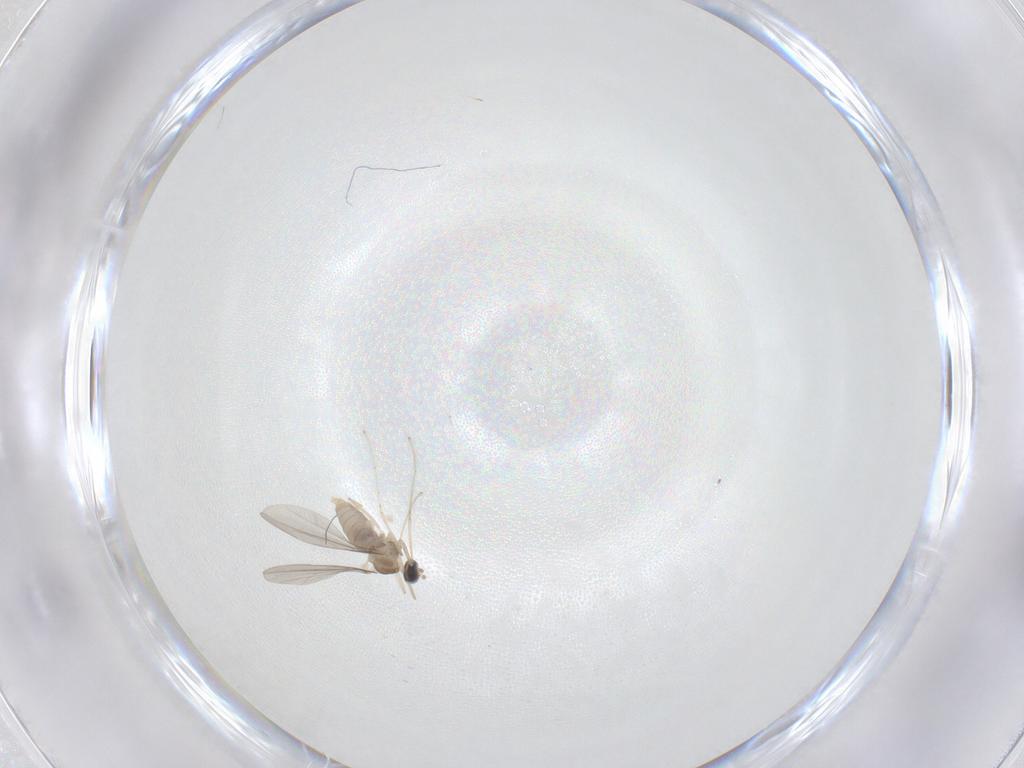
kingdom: Animalia
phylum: Arthropoda
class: Insecta
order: Diptera
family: Cecidomyiidae
